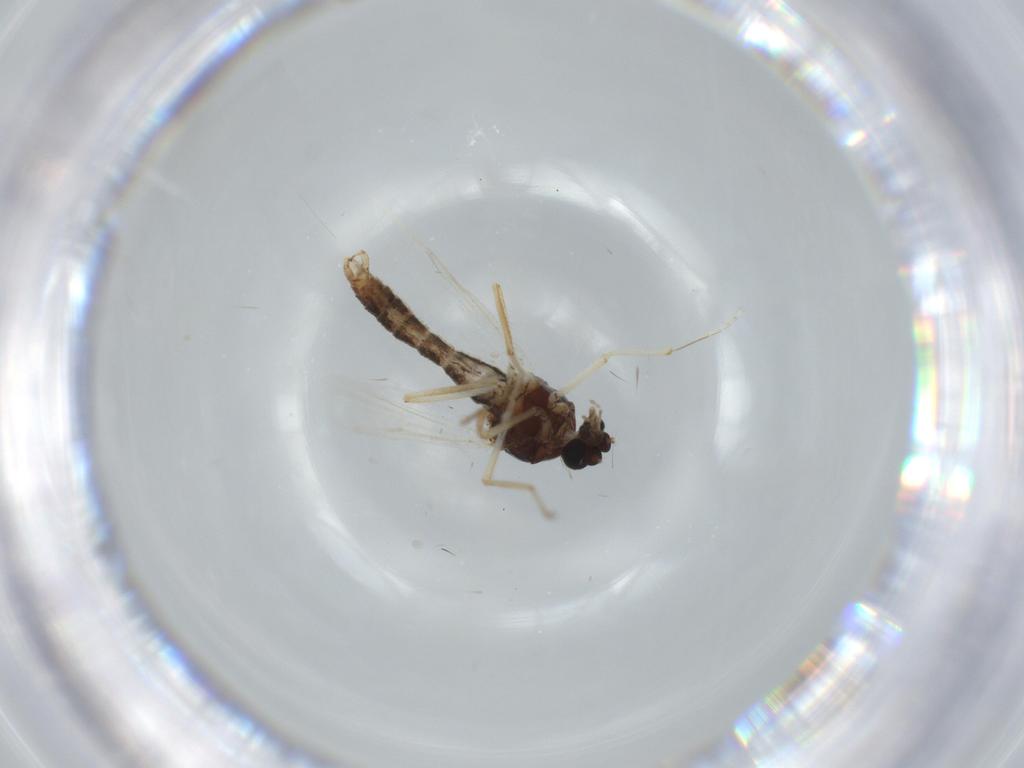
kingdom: Animalia
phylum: Arthropoda
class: Insecta
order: Diptera
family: Ceratopogonidae
